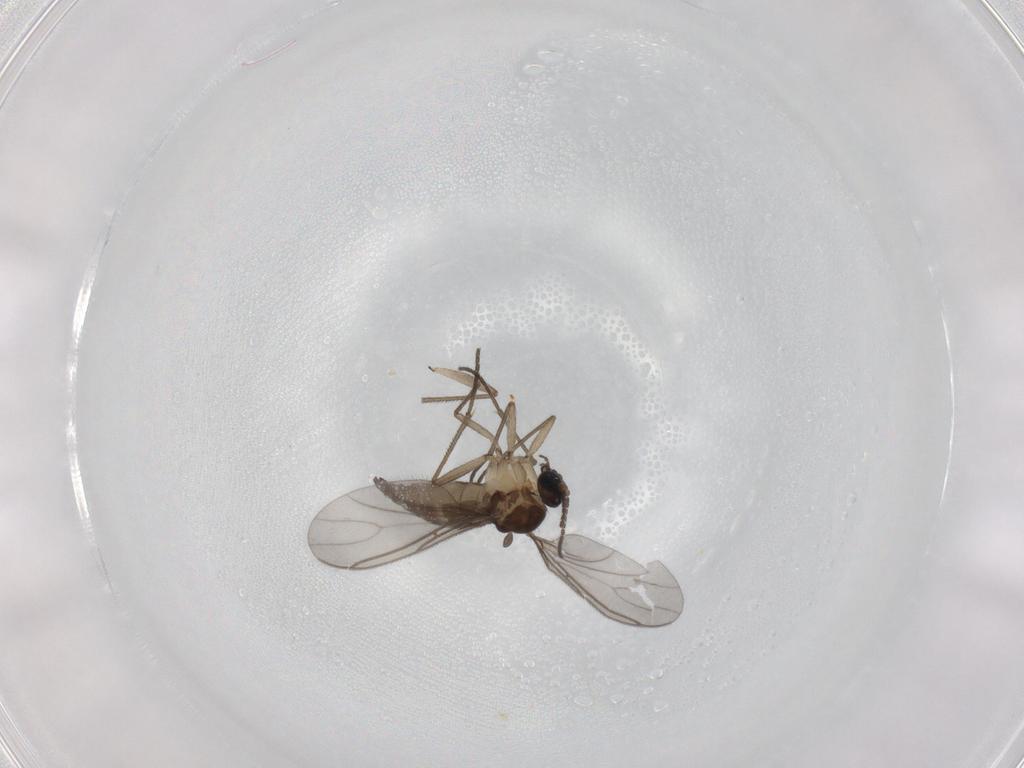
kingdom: Animalia
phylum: Arthropoda
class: Insecta
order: Diptera
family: Sciaridae
